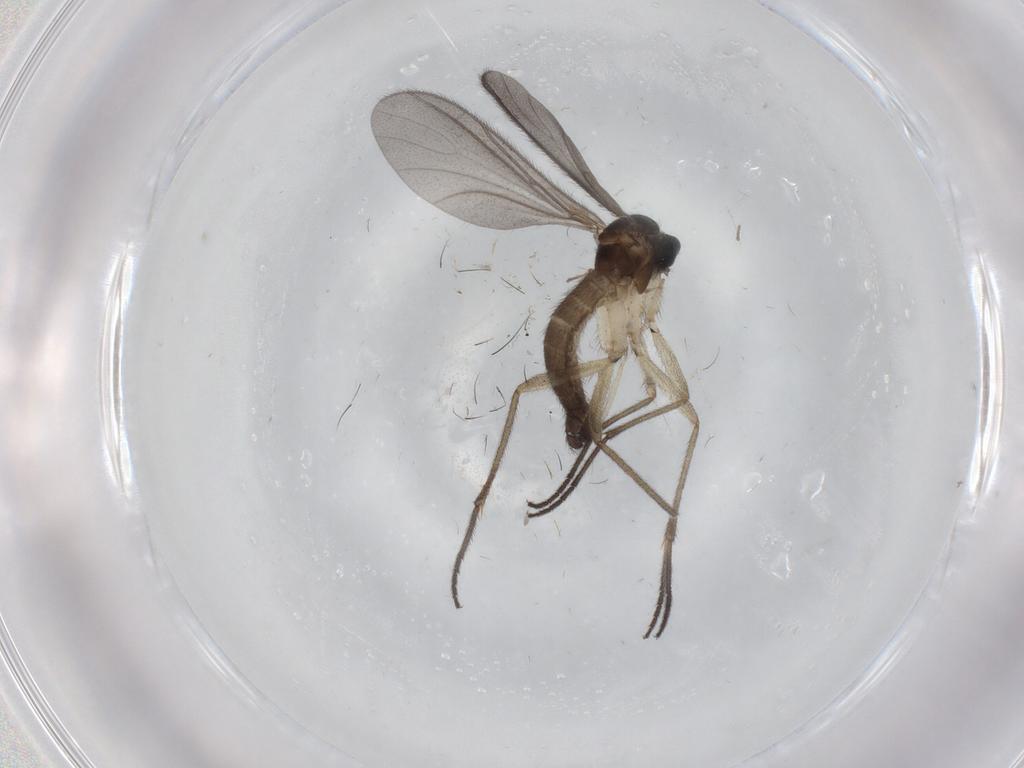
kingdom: Animalia
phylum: Arthropoda
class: Insecta
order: Diptera
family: Sciaridae
